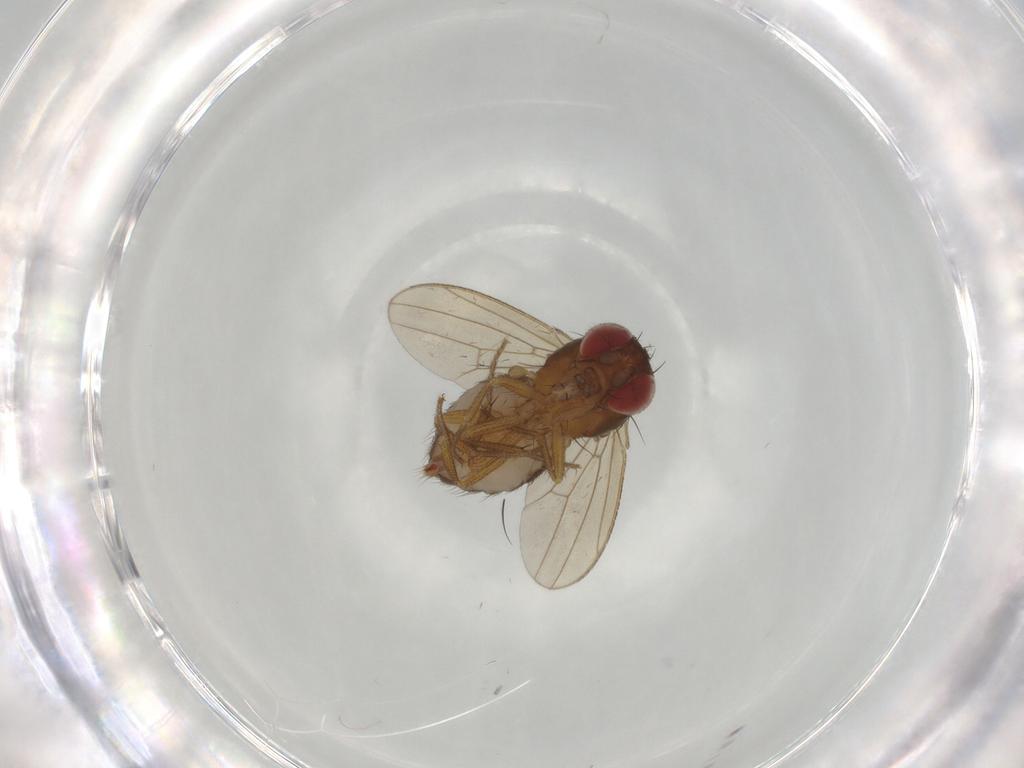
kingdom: Animalia
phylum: Arthropoda
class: Insecta
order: Diptera
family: Drosophilidae
